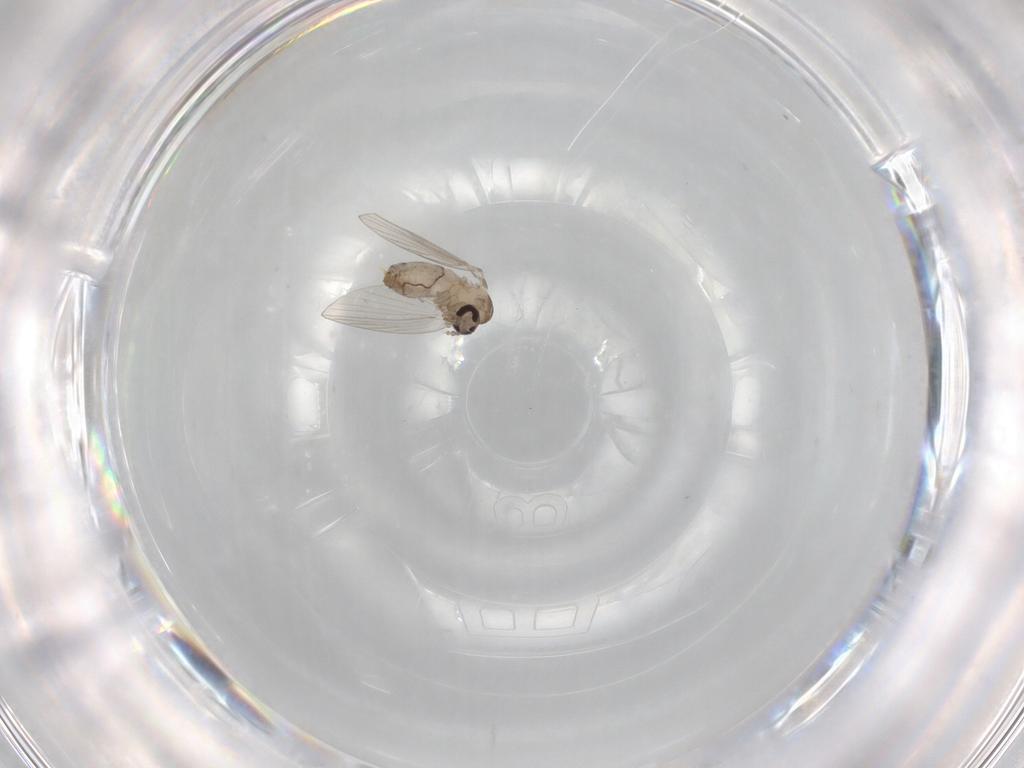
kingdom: Animalia
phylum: Arthropoda
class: Insecta
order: Diptera
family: Psychodidae
